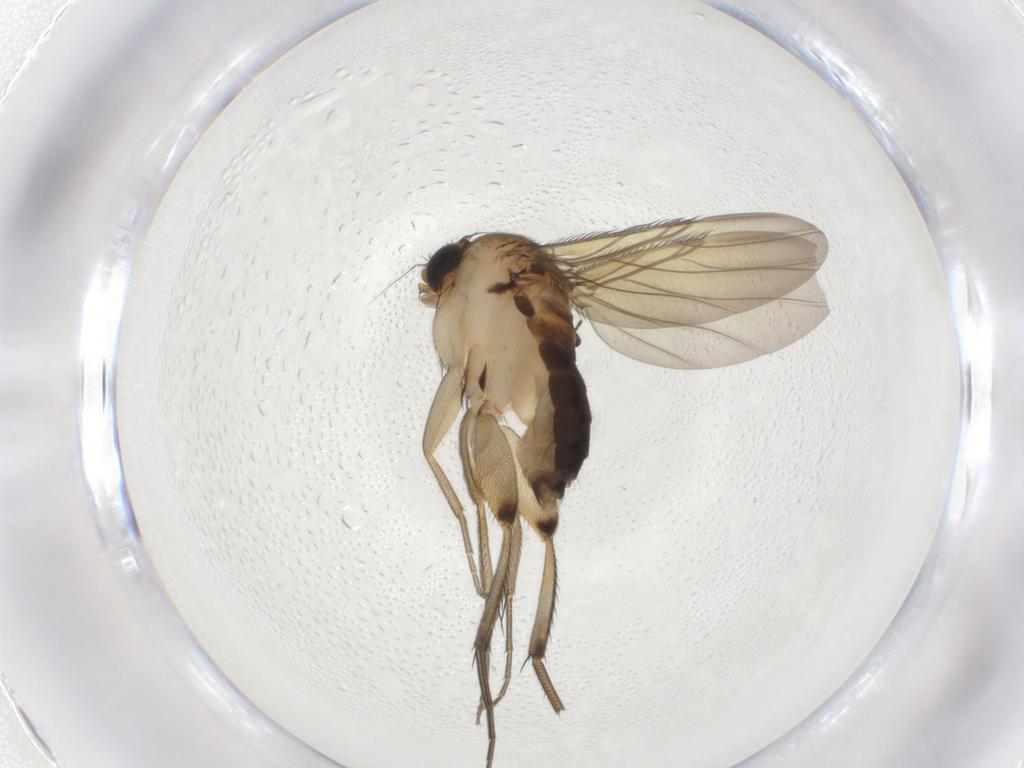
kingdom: Animalia
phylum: Arthropoda
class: Insecta
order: Diptera
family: Phoridae
